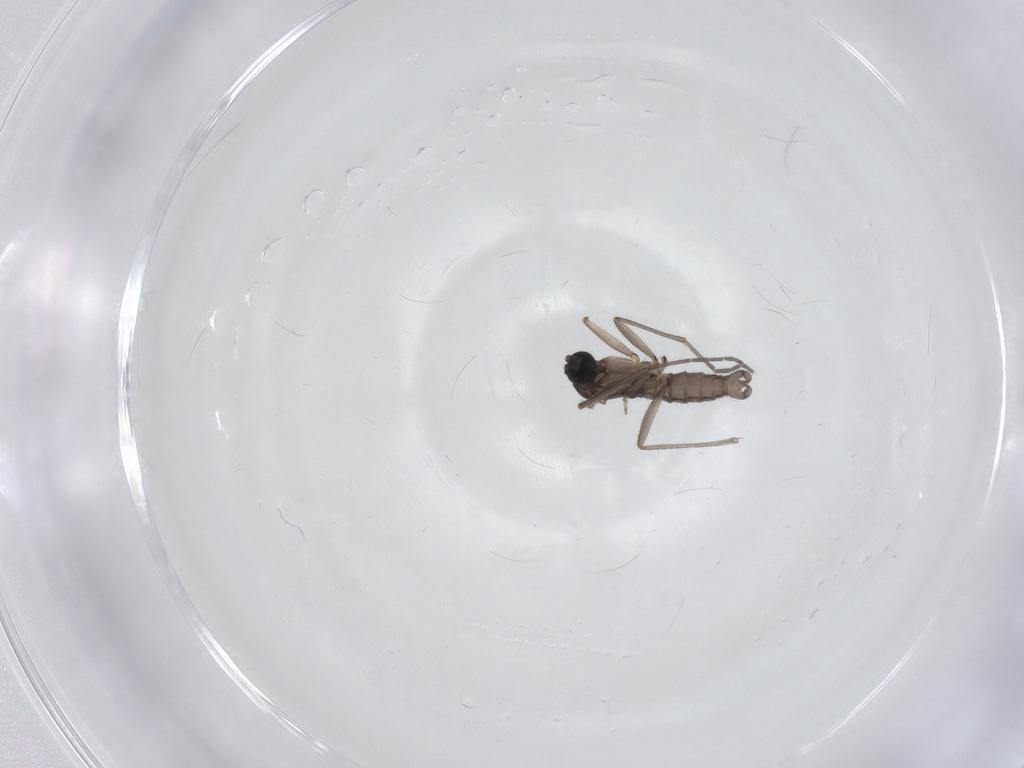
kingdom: Animalia
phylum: Arthropoda
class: Insecta
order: Diptera
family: Sciaridae
